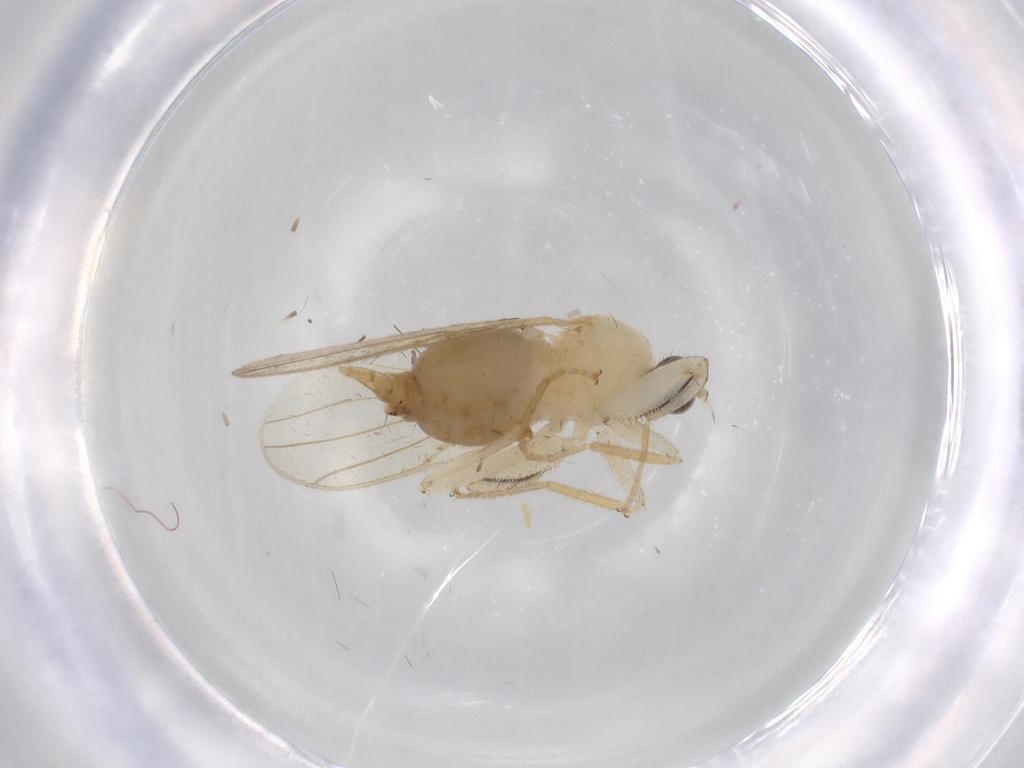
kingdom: Animalia
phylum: Arthropoda
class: Insecta
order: Diptera
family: Hybotidae
